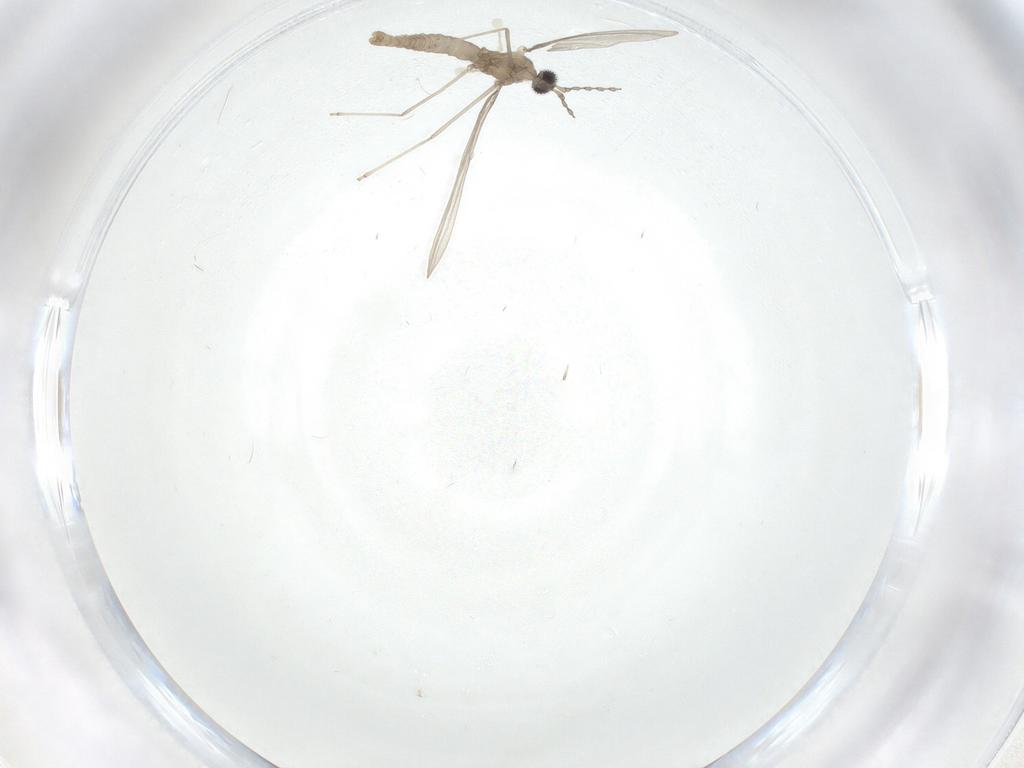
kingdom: Animalia
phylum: Arthropoda
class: Insecta
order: Diptera
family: Cecidomyiidae
